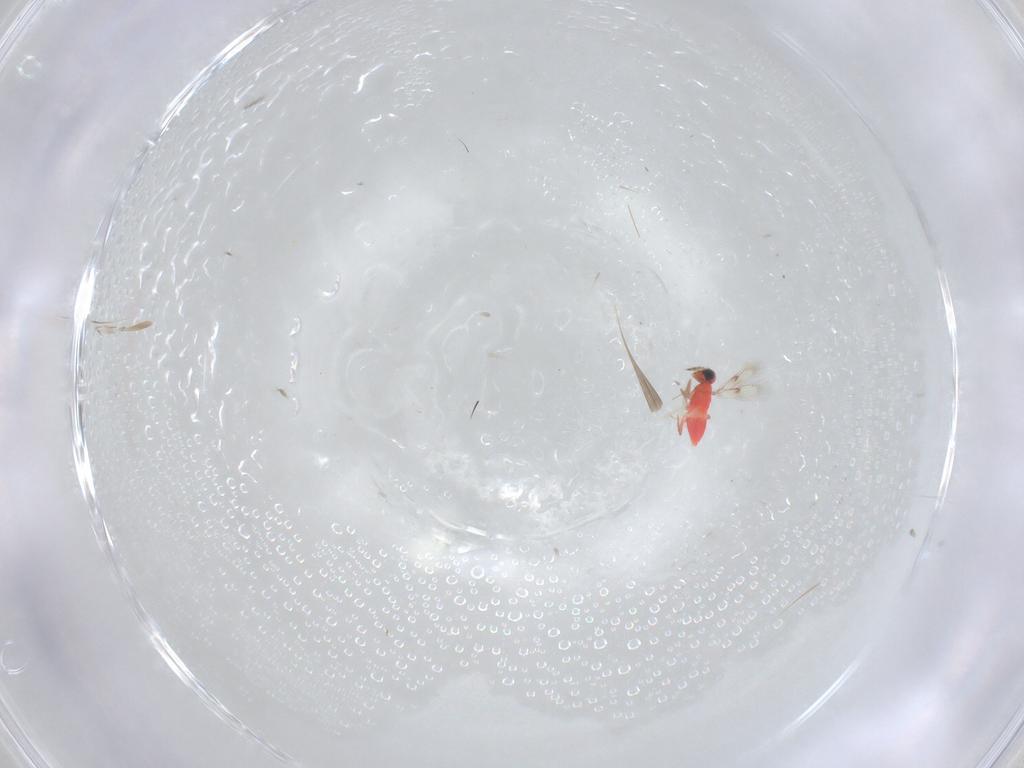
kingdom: Animalia
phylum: Arthropoda
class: Insecta
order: Hymenoptera
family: Trichogrammatidae
